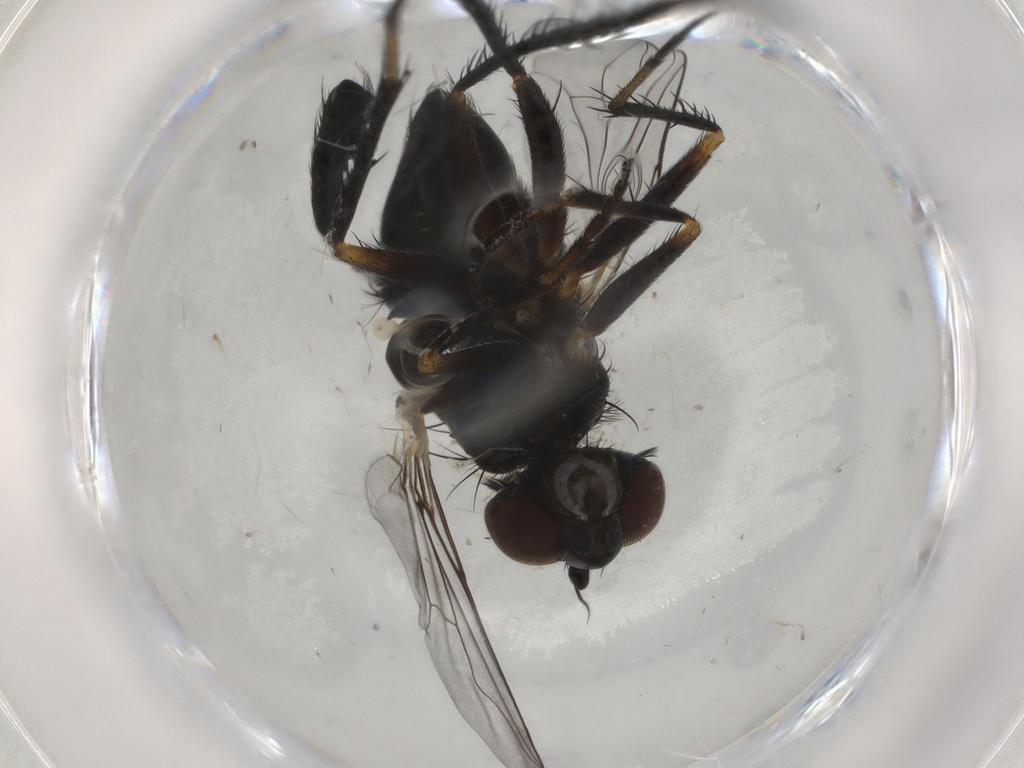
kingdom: Animalia
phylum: Arthropoda
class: Insecta
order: Diptera
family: Dolichopodidae
